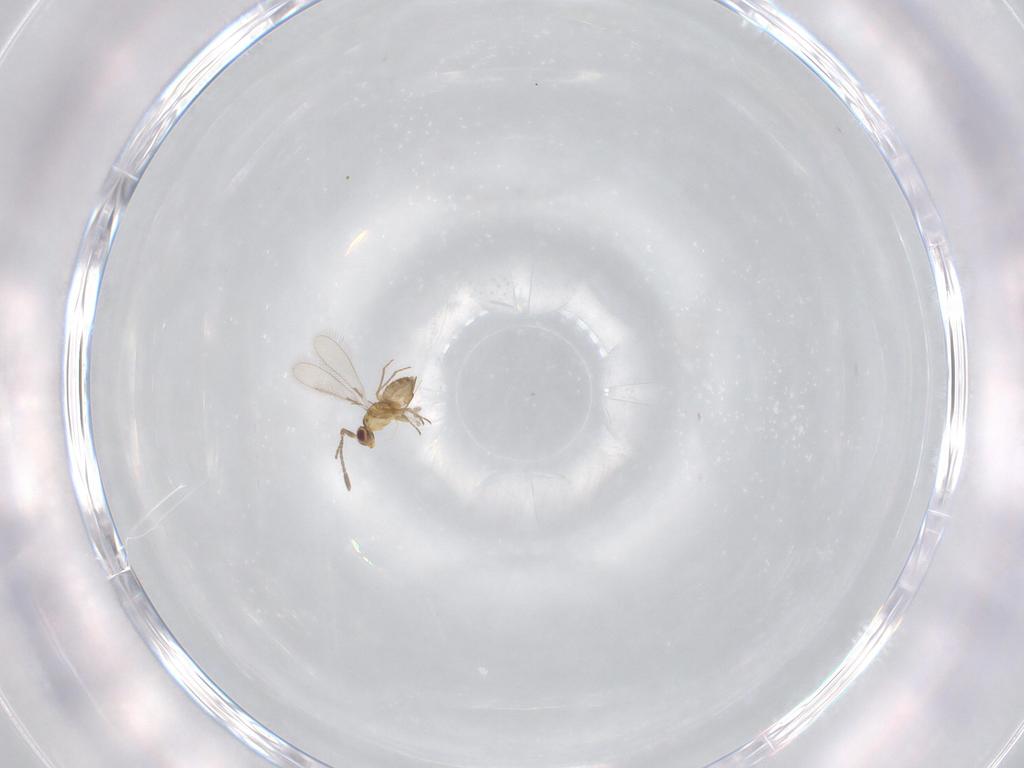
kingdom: Animalia
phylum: Arthropoda
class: Insecta
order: Hymenoptera
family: Mymaridae
